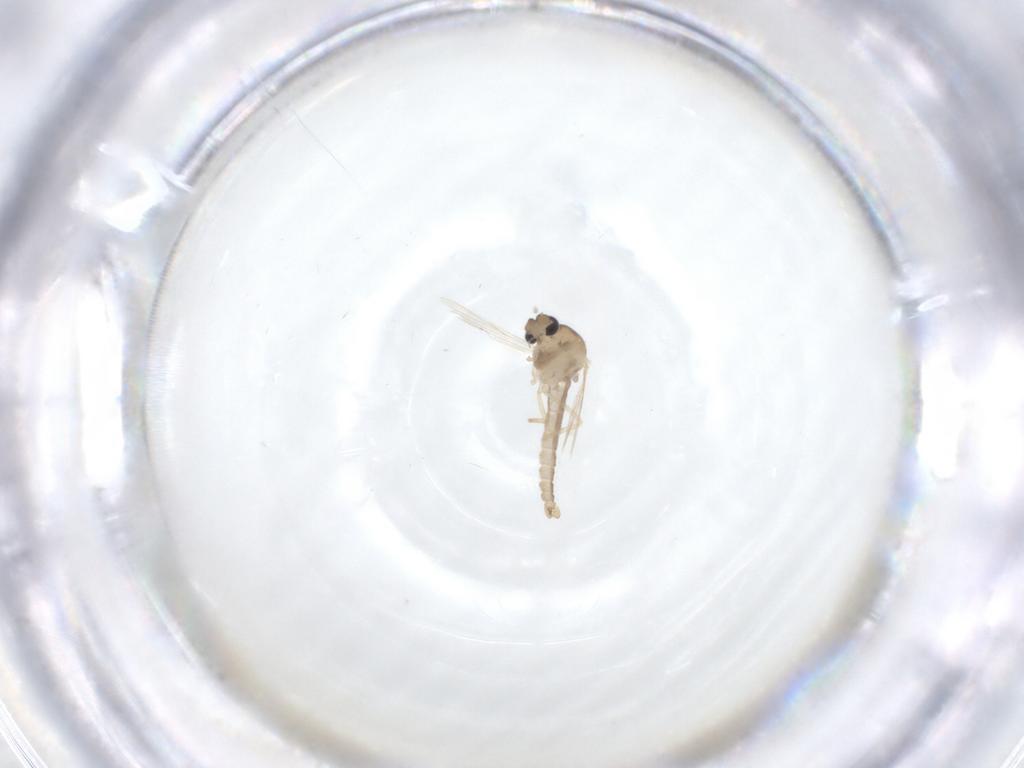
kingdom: Animalia
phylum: Arthropoda
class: Insecta
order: Diptera
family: Ceratopogonidae
